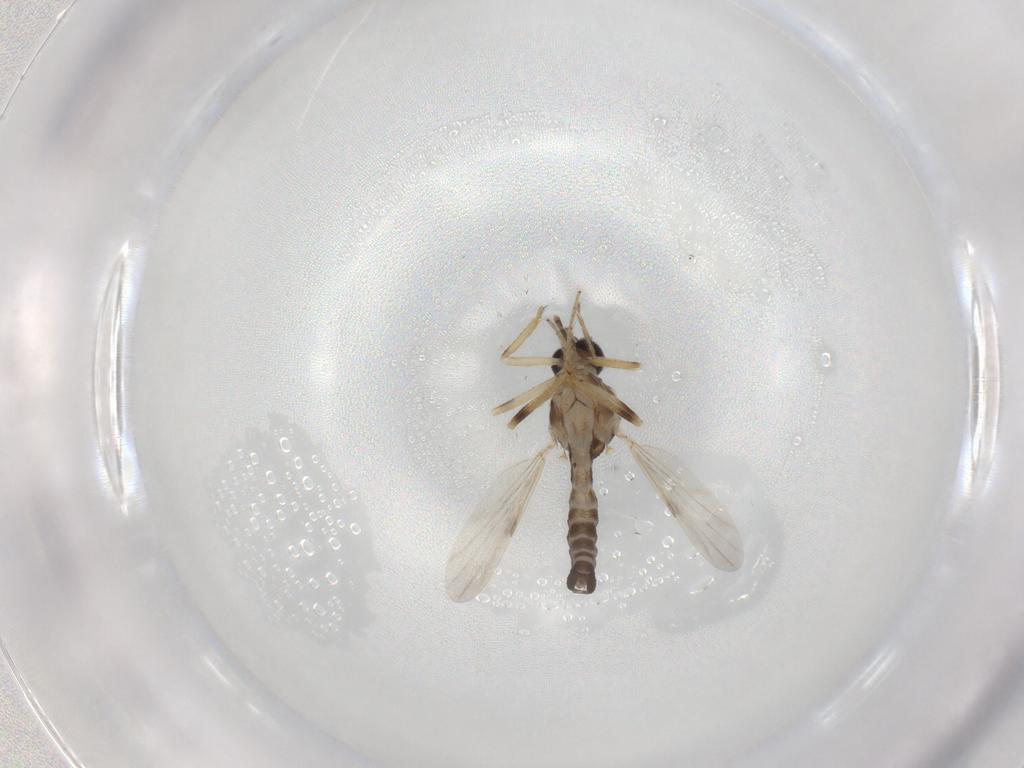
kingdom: Animalia
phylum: Arthropoda
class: Insecta
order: Diptera
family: Ceratopogonidae
